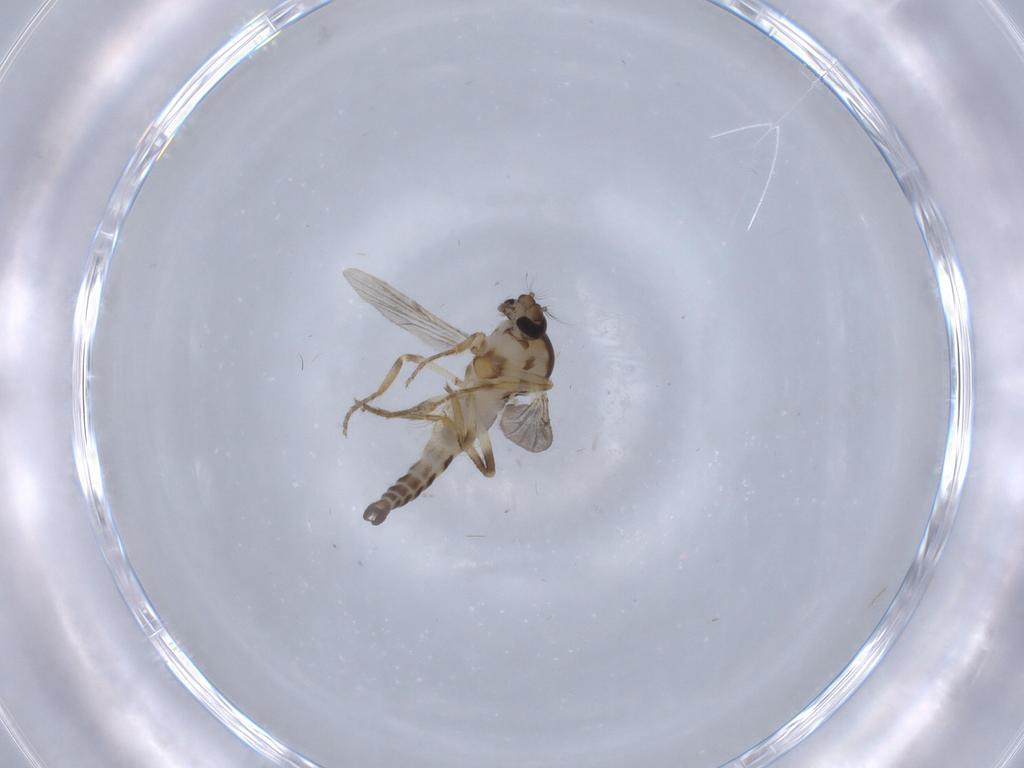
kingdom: Animalia
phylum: Arthropoda
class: Insecta
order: Diptera
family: Ceratopogonidae
